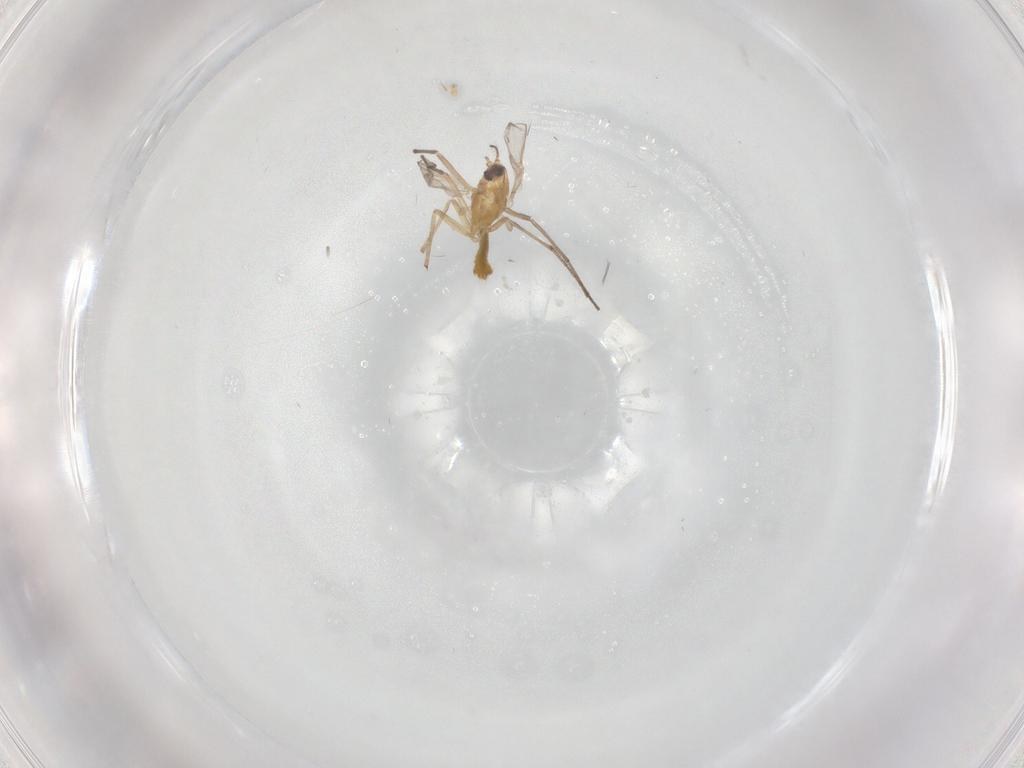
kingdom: Animalia
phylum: Arthropoda
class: Insecta
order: Diptera
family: Chironomidae
